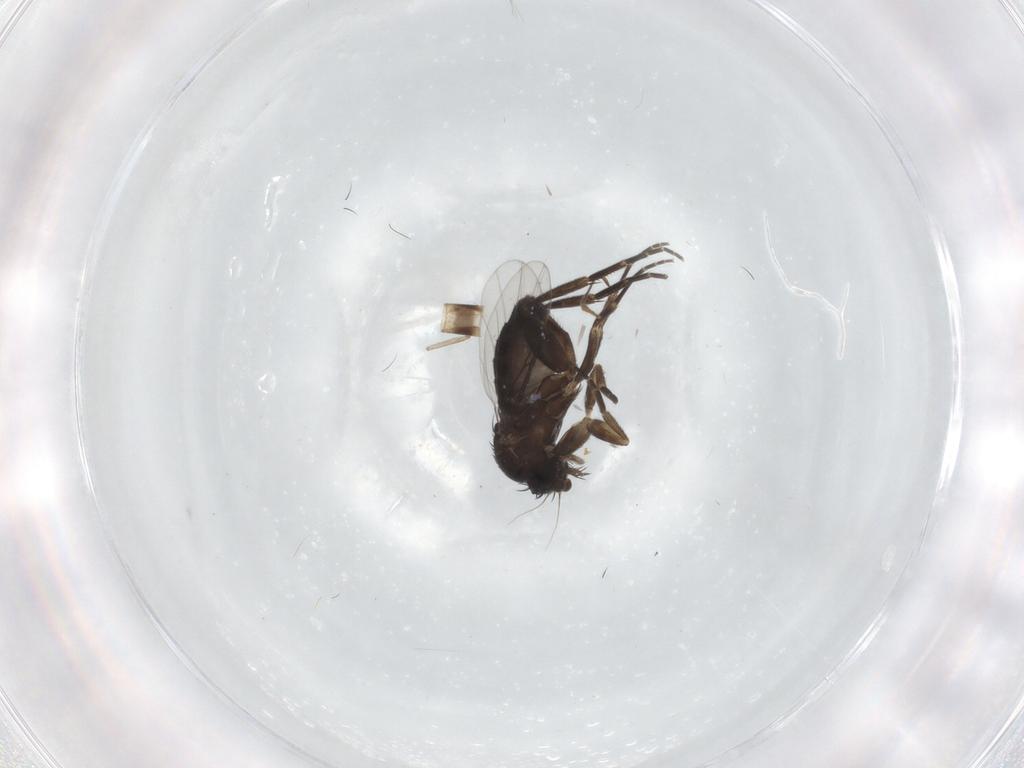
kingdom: Animalia
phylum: Arthropoda
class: Insecta
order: Diptera
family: Phoridae
